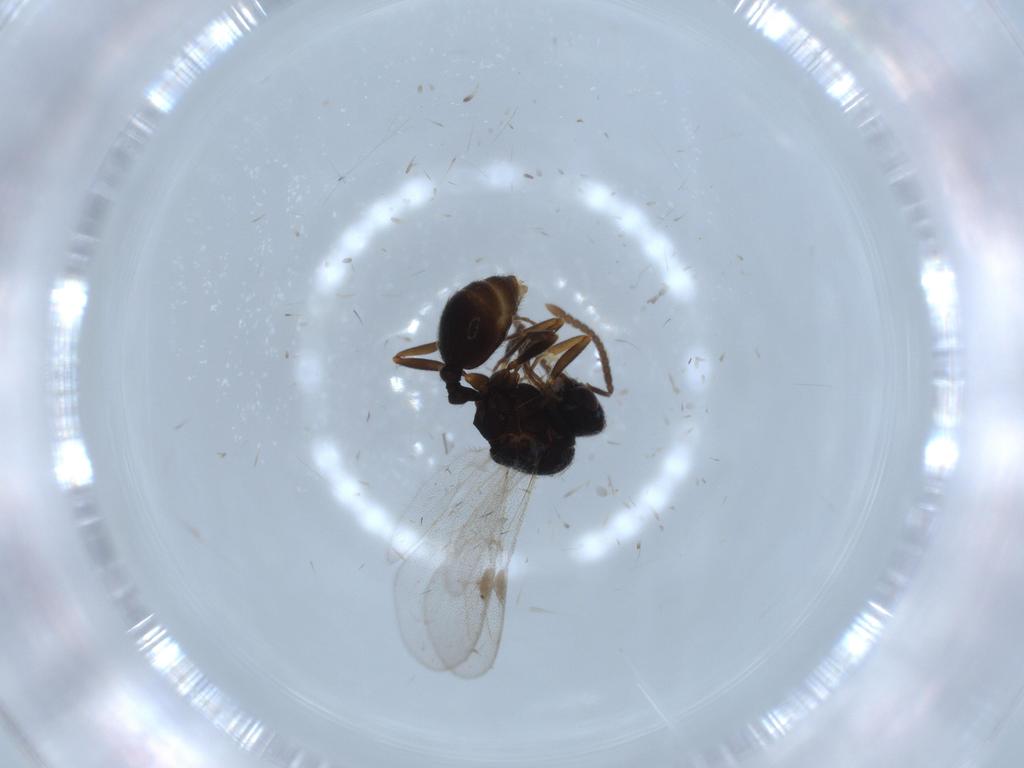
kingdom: Animalia
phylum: Arthropoda
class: Insecta
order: Hymenoptera
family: Formicidae
